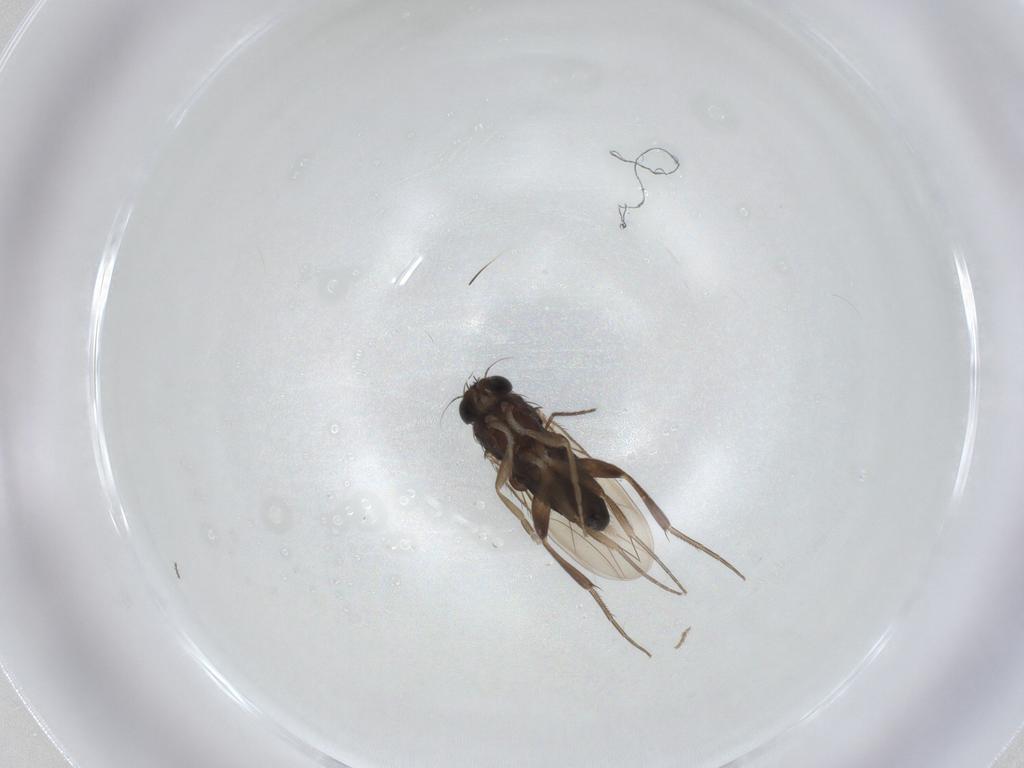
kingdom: Animalia
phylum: Arthropoda
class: Insecta
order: Diptera
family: Phoridae
